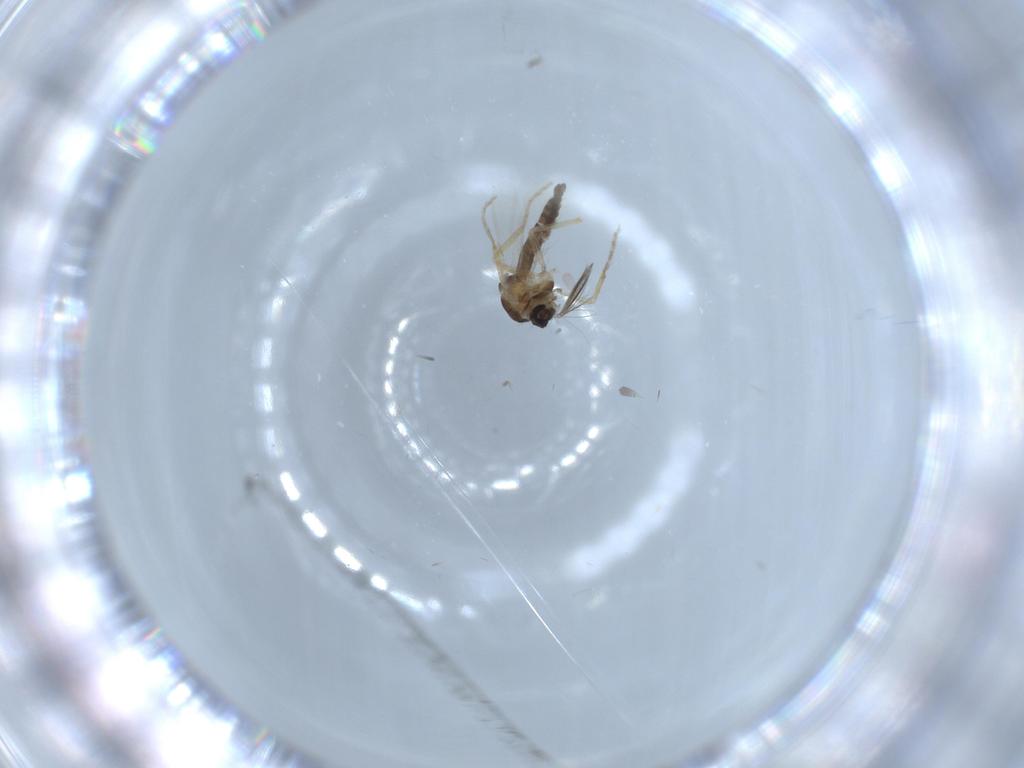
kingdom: Animalia
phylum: Arthropoda
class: Insecta
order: Diptera
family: Ceratopogonidae
